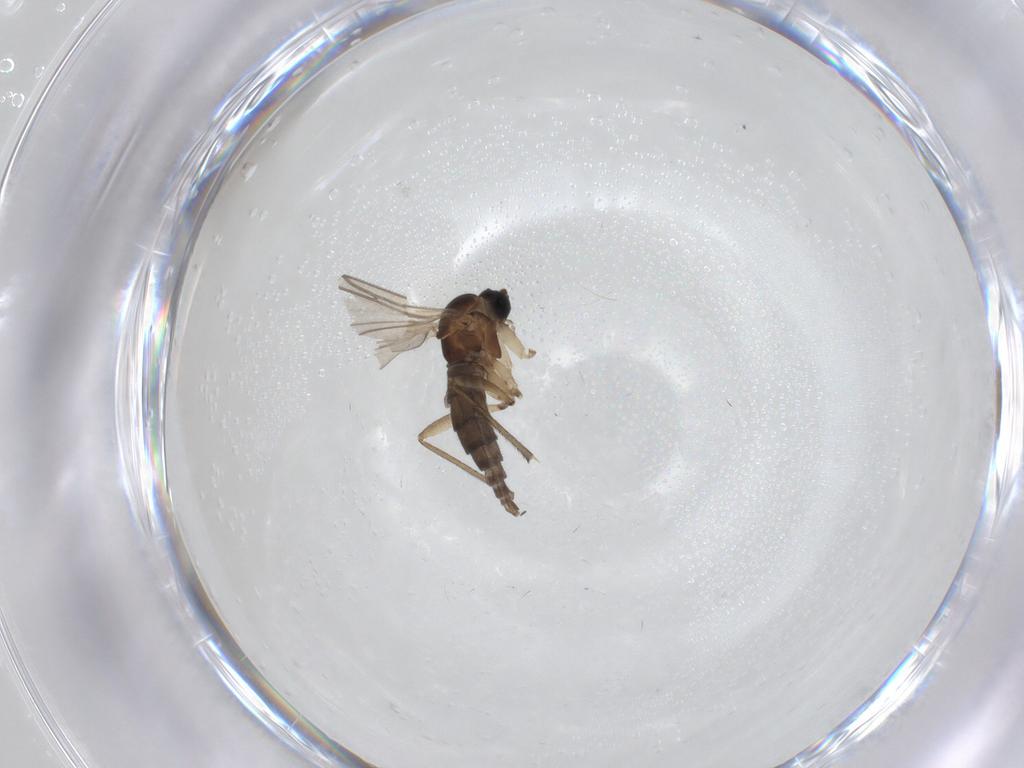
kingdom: Animalia
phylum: Arthropoda
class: Insecta
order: Diptera
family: Sciaridae
